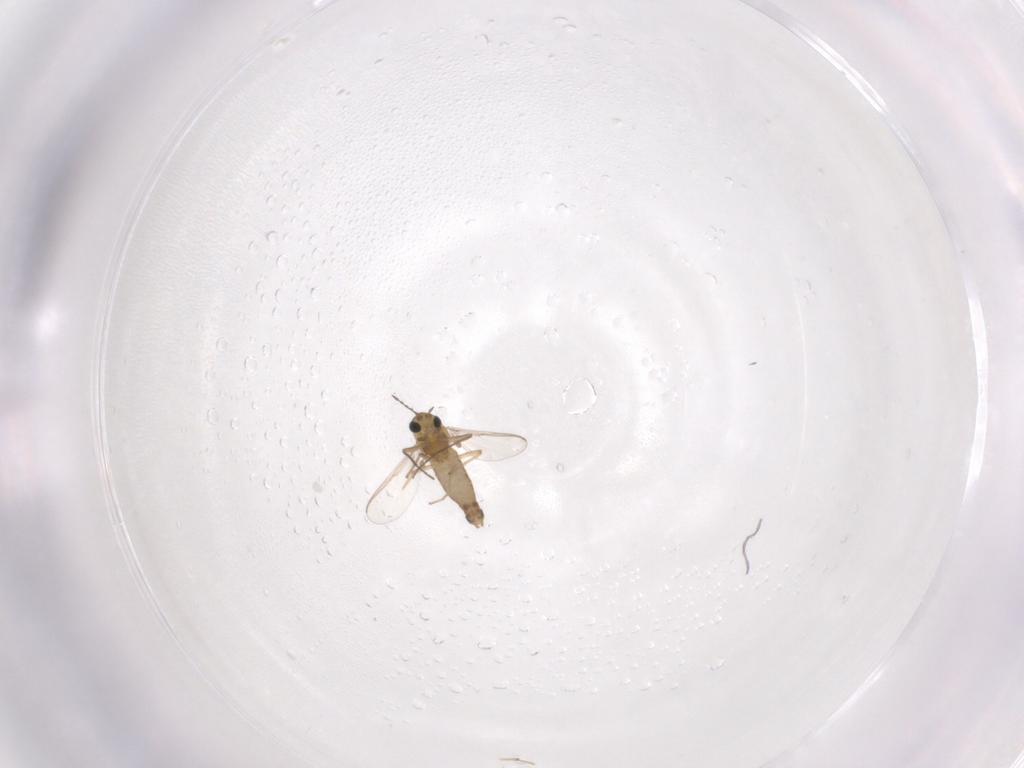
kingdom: Animalia
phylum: Arthropoda
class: Insecta
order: Diptera
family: Chironomidae
